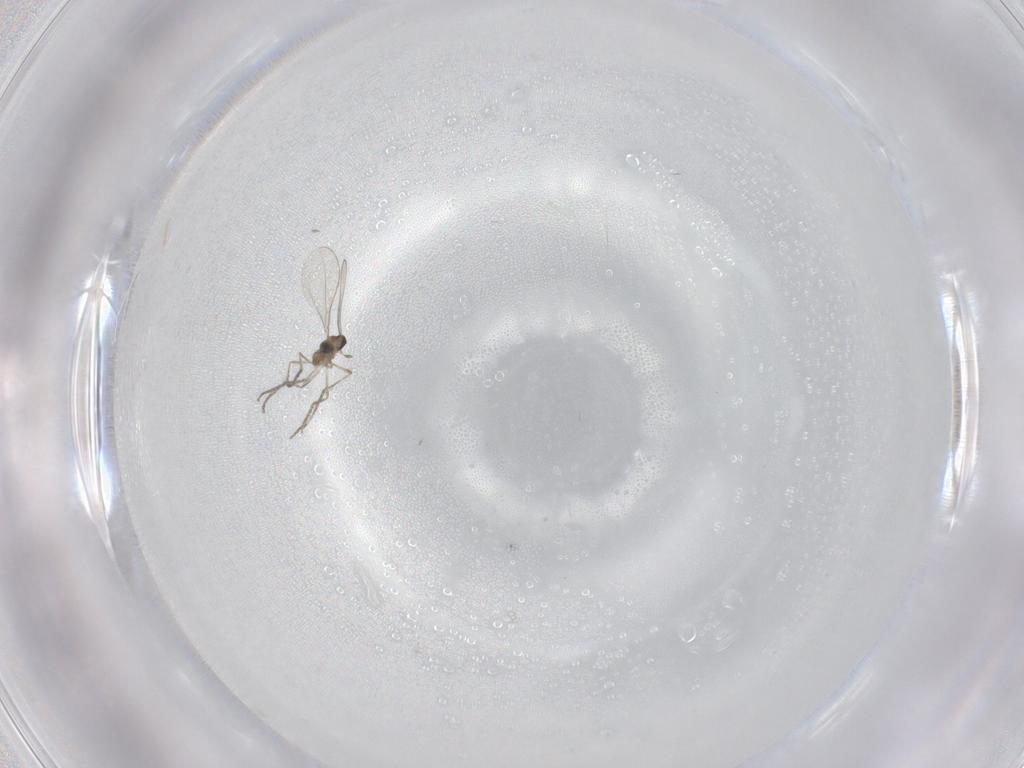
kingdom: Animalia
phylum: Arthropoda
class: Insecta
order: Diptera
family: Cecidomyiidae
